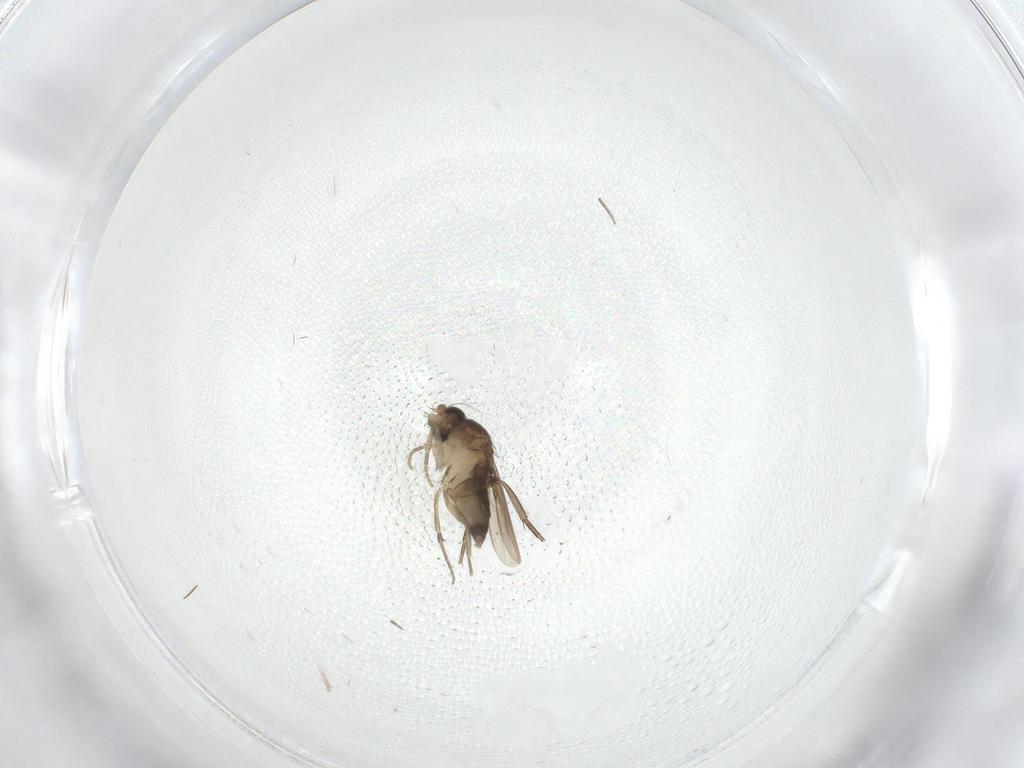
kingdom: Animalia
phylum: Arthropoda
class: Insecta
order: Diptera
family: Phoridae
